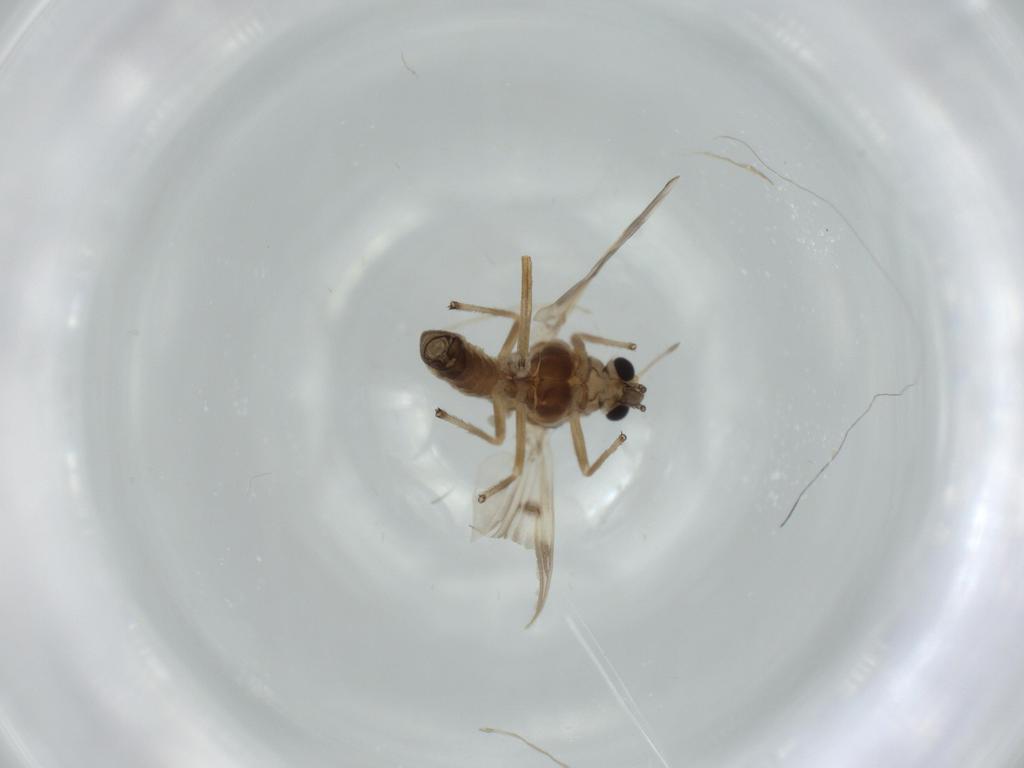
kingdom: Animalia
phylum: Arthropoda
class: Insecta
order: Diptera
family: Chironomidae
